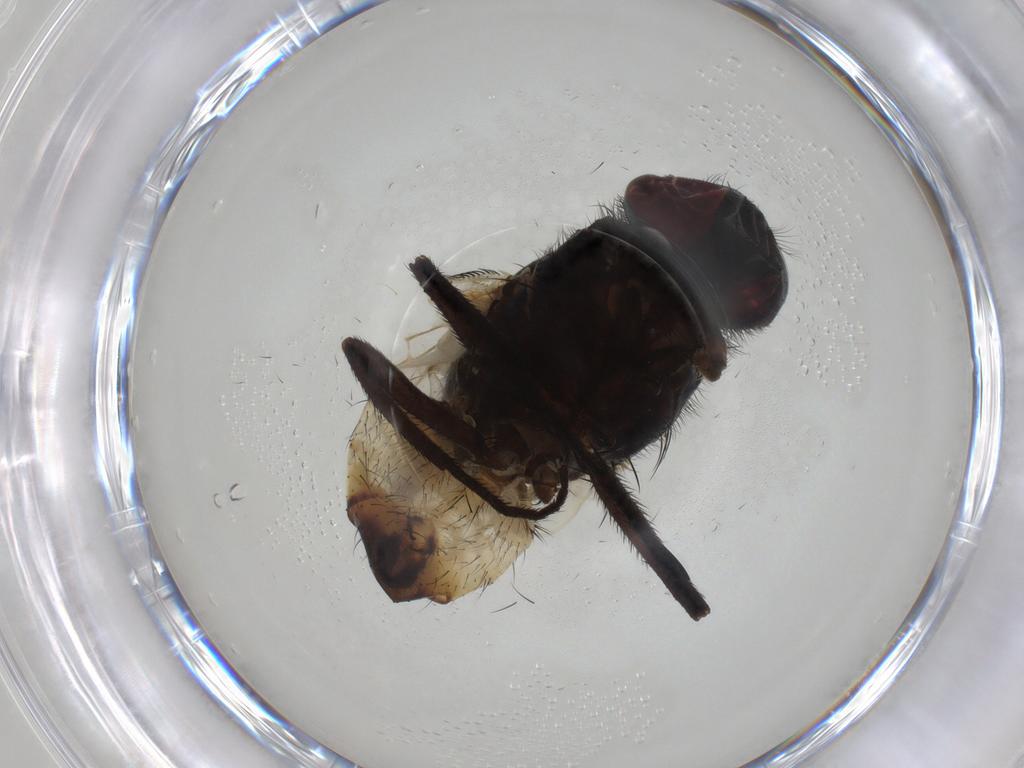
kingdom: Animalia
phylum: Arthropoda
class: Insecta
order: Diptera
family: Muscidae
